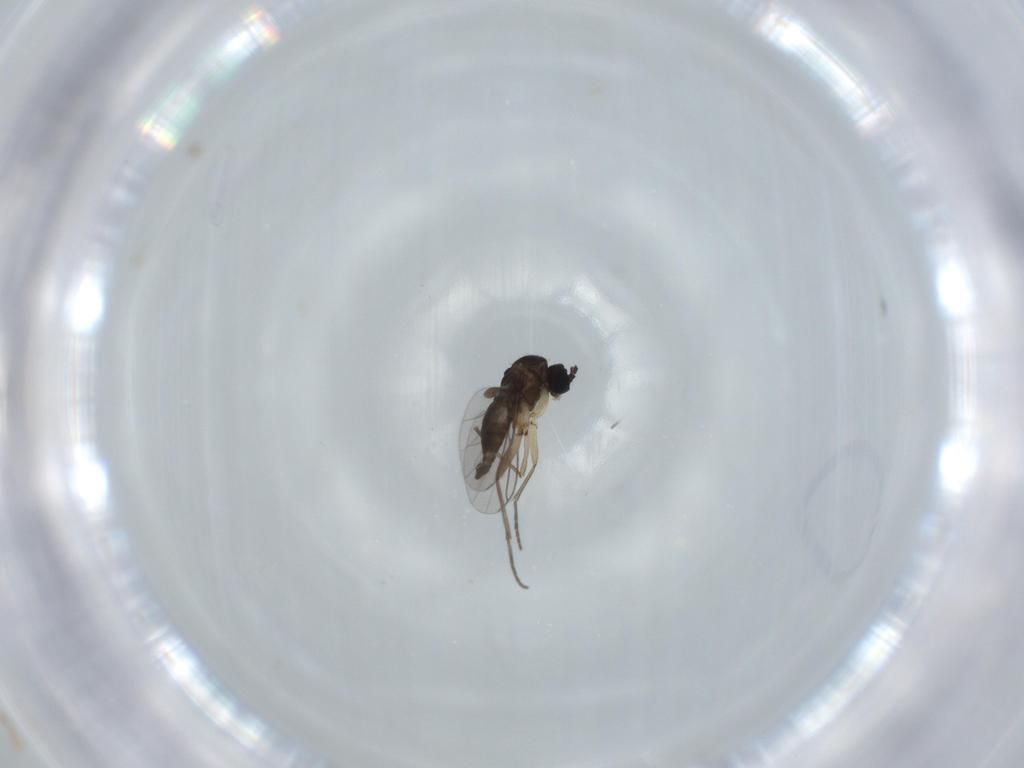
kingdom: Animalia
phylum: Arthropoda
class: Insecta
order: Diptera
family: Sciaridae
